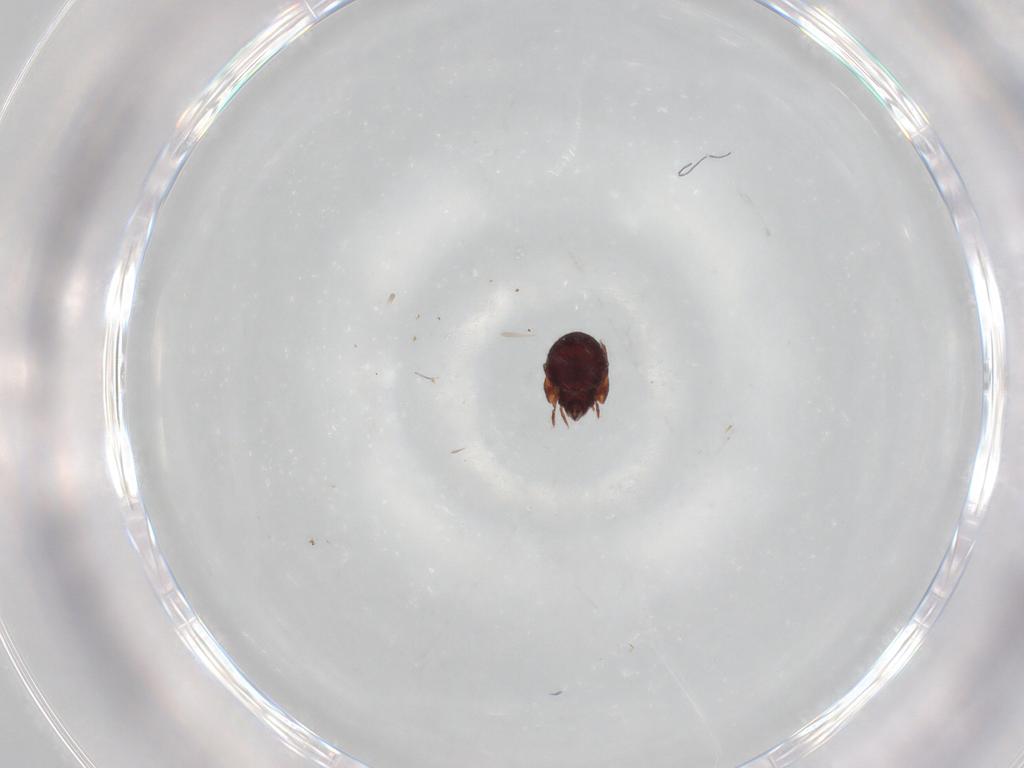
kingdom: Animalia
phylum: Arthropoda
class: Arachnida
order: Sarcoptiformes
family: Humerobatidae
